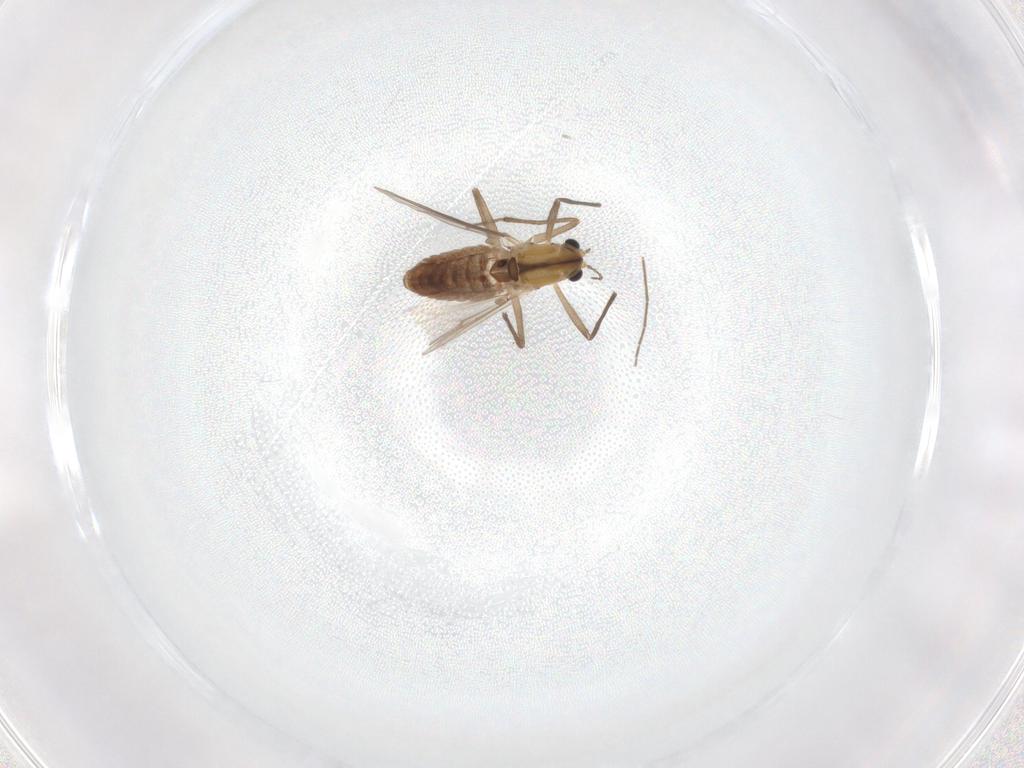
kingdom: Animalia
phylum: Arthropoda
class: Insecta
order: Diptera
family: Chironomidae
